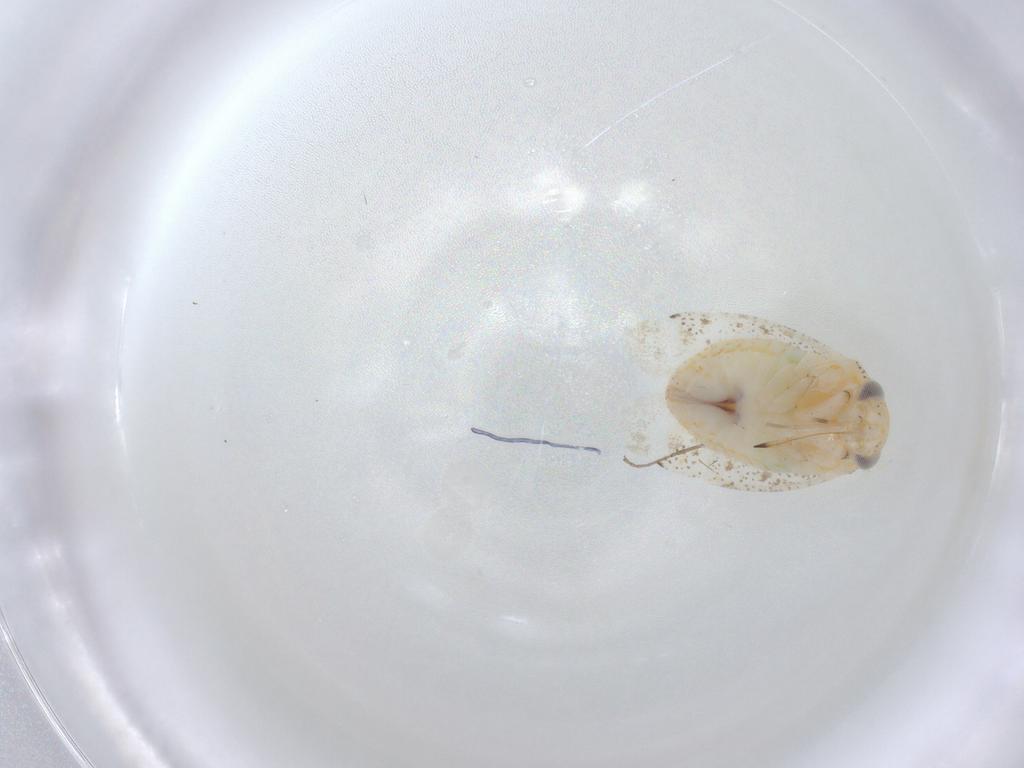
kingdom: Animalia
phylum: Arthropoda
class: Insecta
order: Hemiptera
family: Miridae
